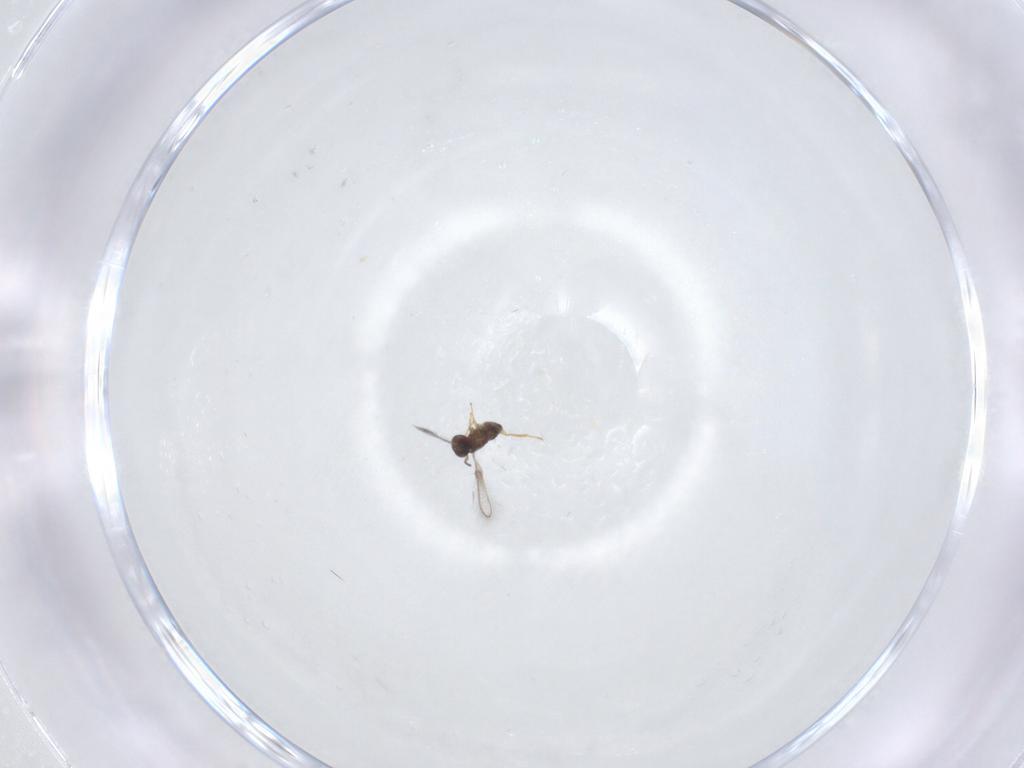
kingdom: Animalia
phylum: Arthropoda
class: Insecta
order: Hymenoptera
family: Mymaridae
